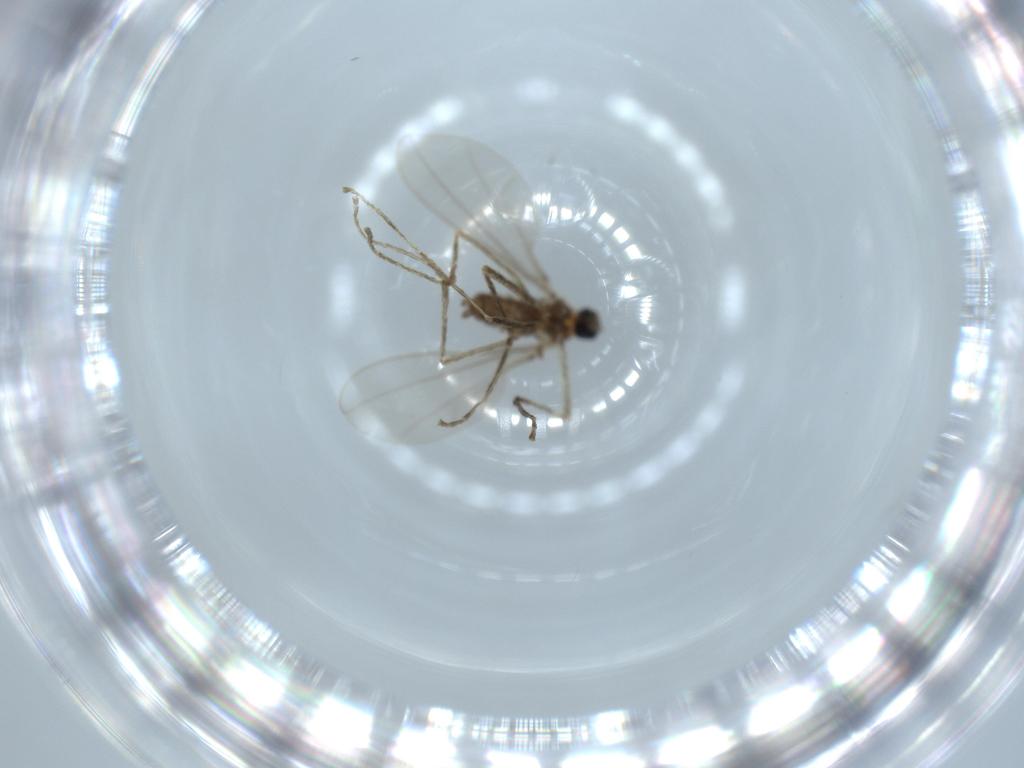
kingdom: Animalia
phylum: Arthropoda
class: Insecta
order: Diptera
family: Cecidomyiidae
